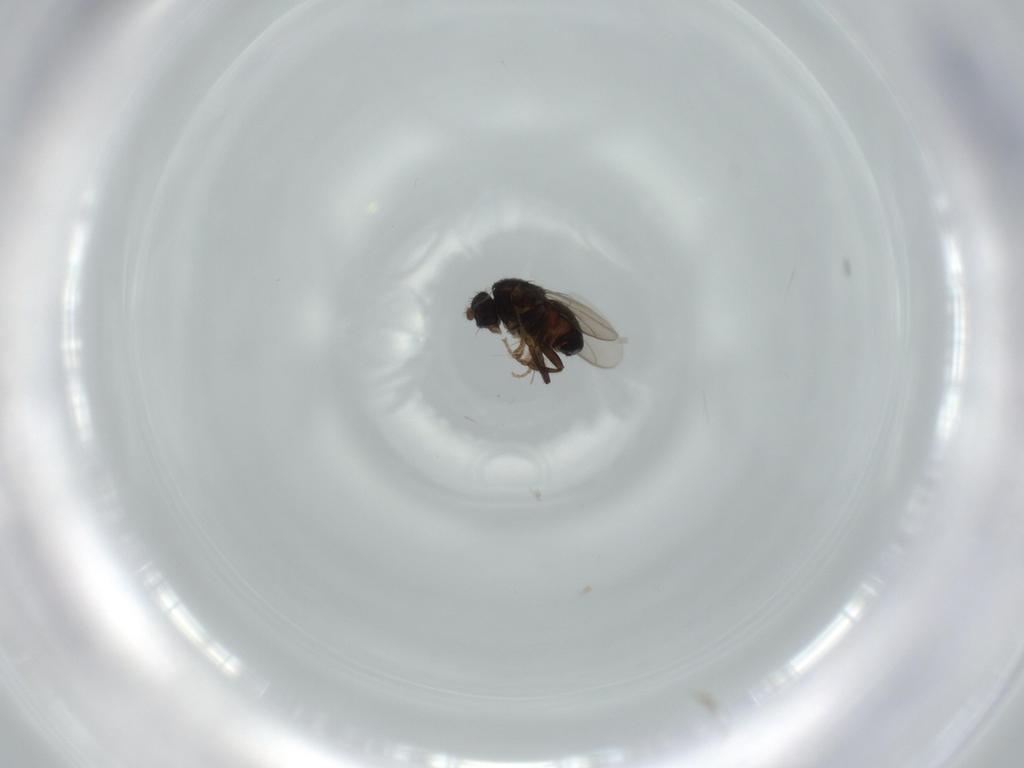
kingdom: Animalia
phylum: Arthropoda
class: Insecta
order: Diptera
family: Sphaeroceridae
